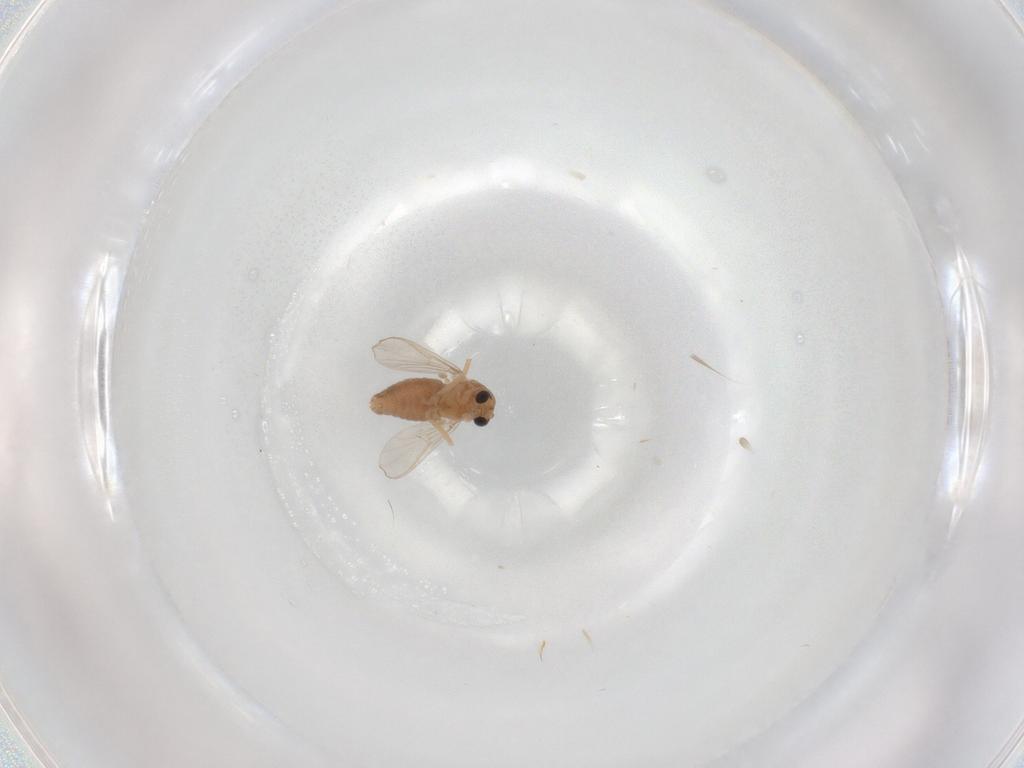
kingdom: Animalia
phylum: Arthropoda
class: Insecta
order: Diptera
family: Chironomidae
